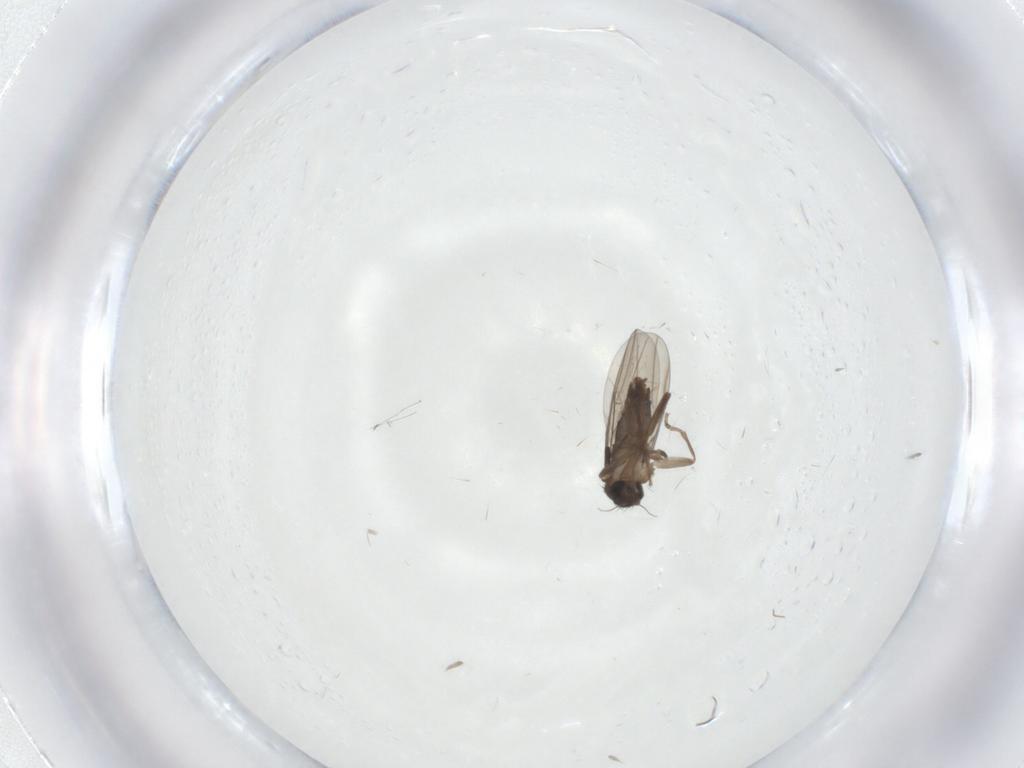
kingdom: Animalia
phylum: Arthropoda
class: Insecta
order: Diptera
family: Phoridae
